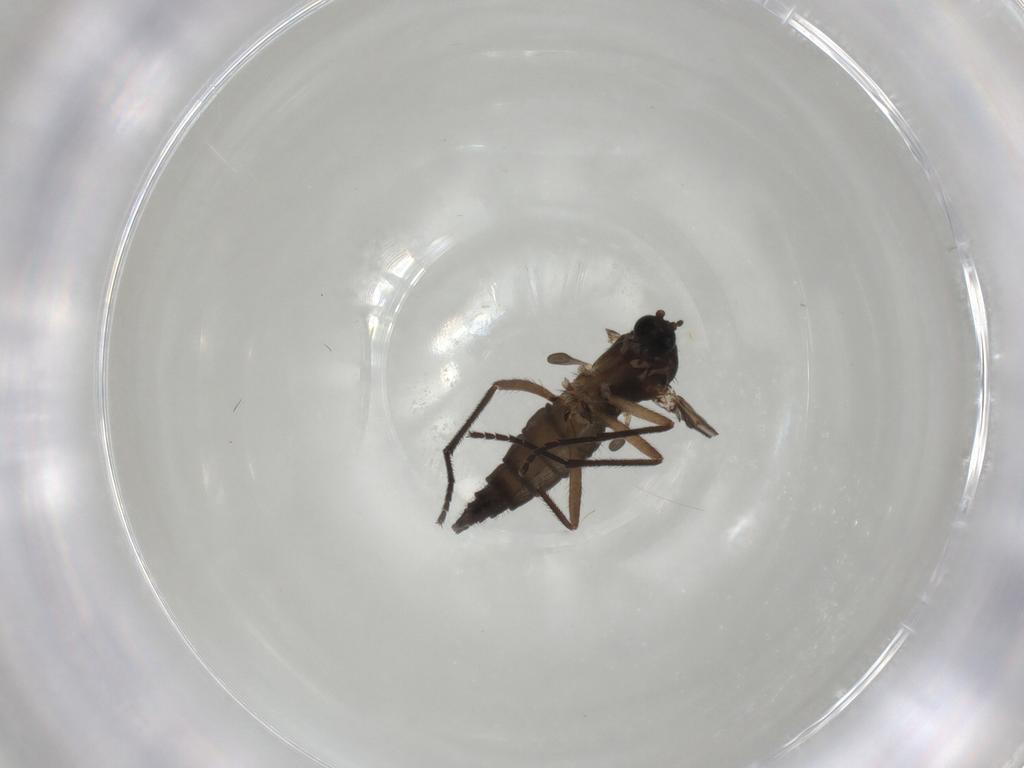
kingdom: Animalia
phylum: Arthropoda
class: Insecta
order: Diptera
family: Sciaridae
